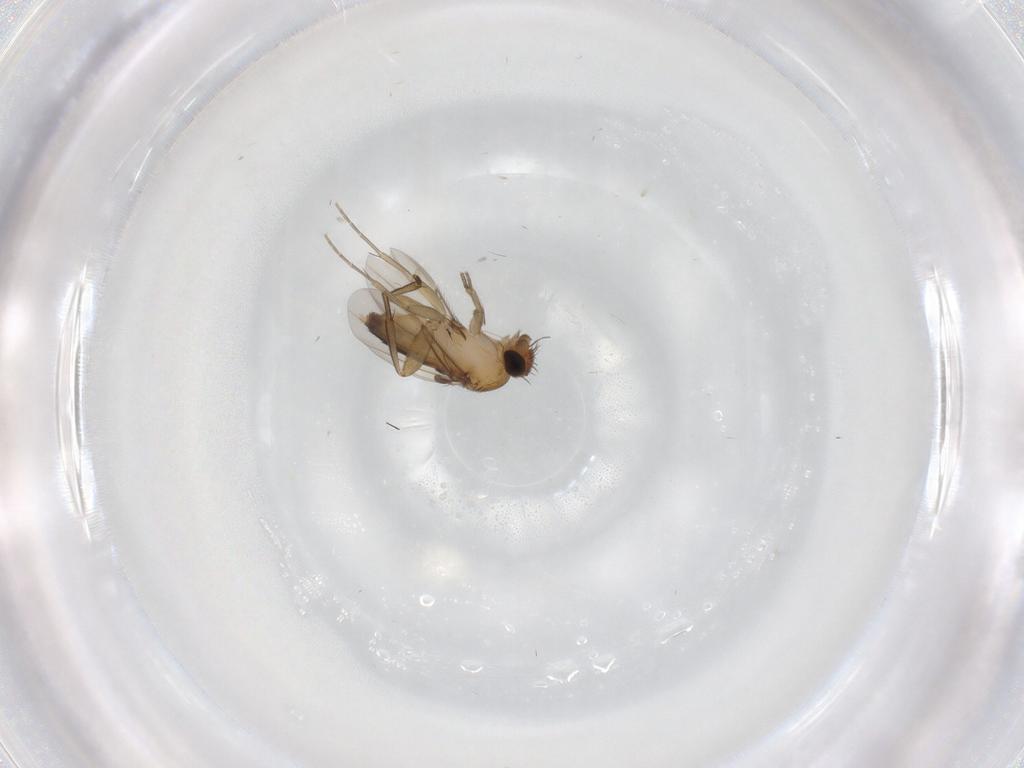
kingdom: Animalia
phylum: Arthropoda
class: Insecta
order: Diptera
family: Phoridae
